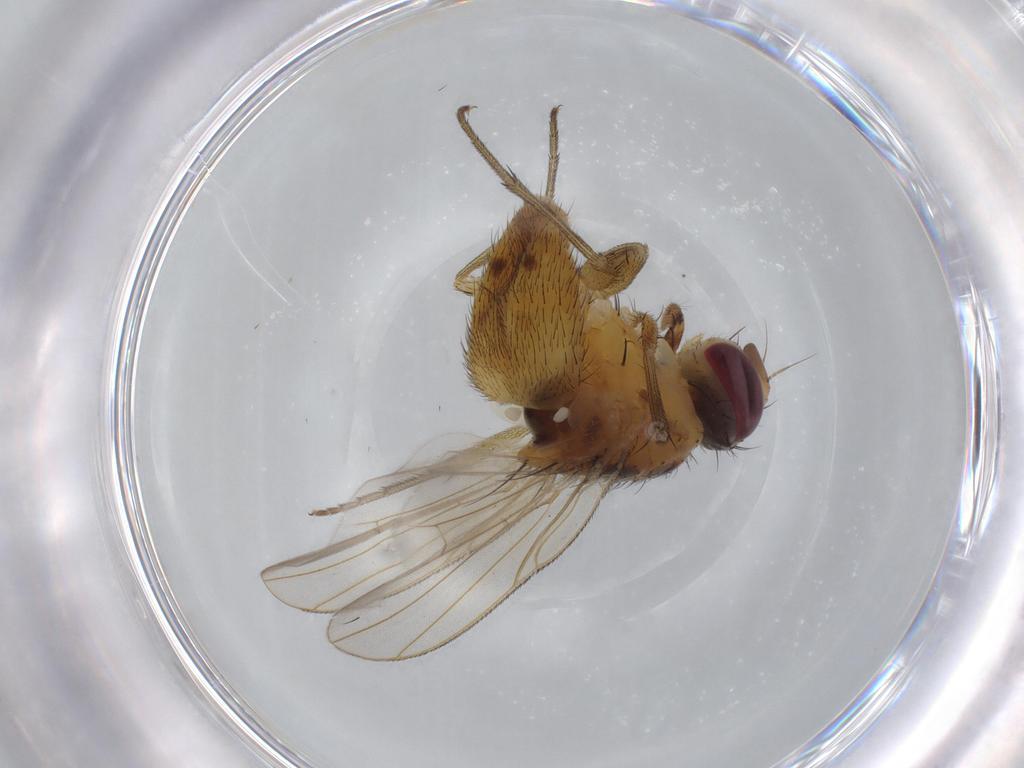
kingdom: Animalia
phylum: Arthropoda
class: Insecta
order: Diptera
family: Muscidae
